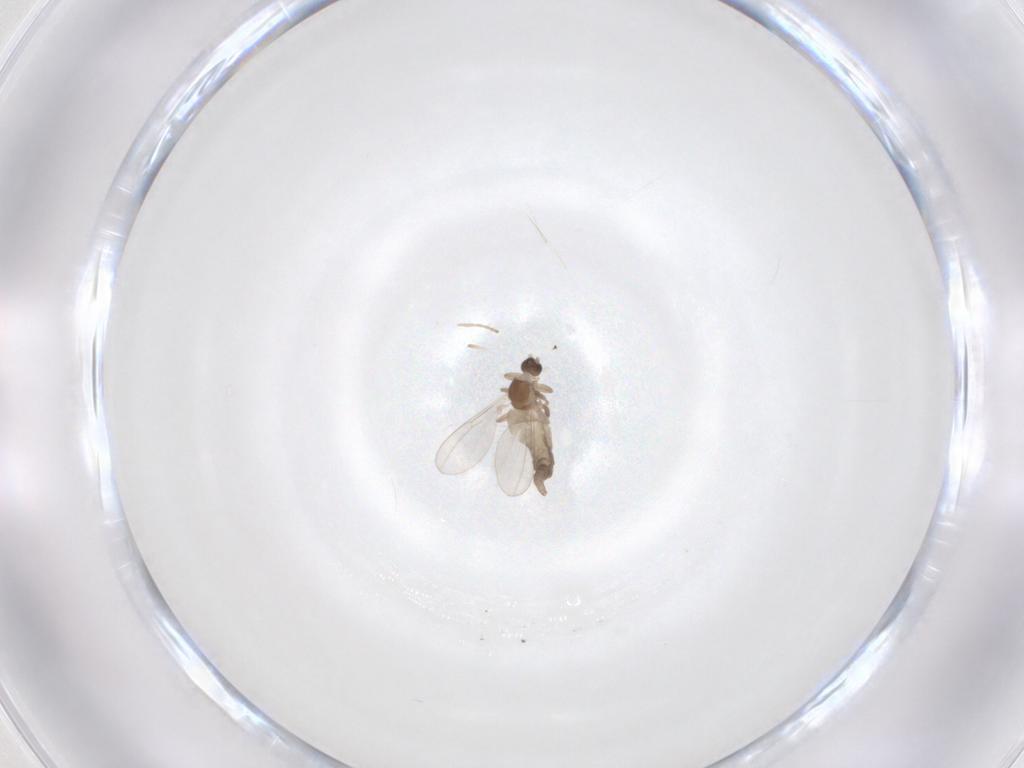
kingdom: Animalia
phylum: Arthropoda
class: Insecta
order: Diptera
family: Cecidomyiidae
